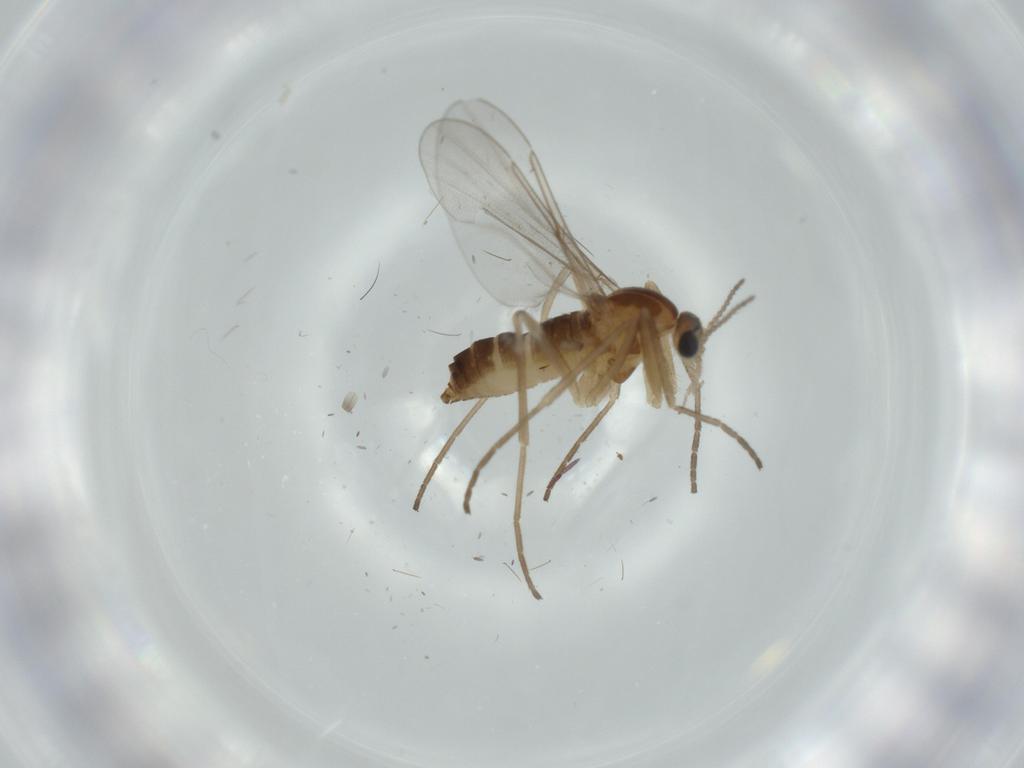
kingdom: Animalia
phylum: Arthropoda
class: Insecta
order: Diptera
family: Cecidomyiidae
